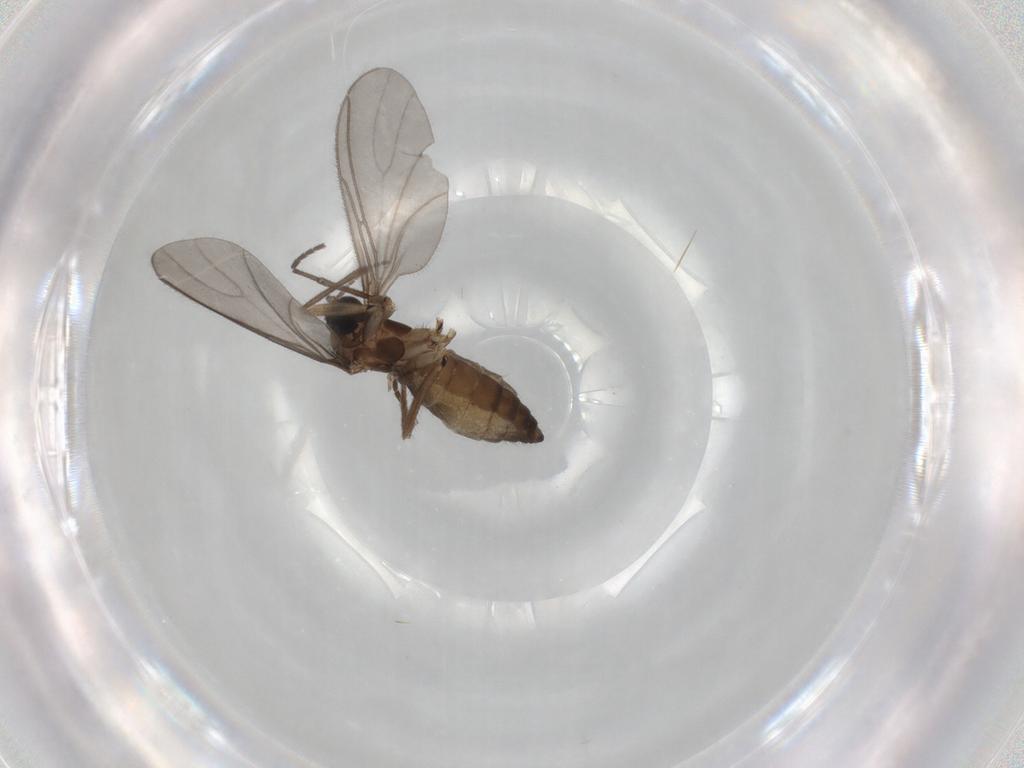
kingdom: Animalia
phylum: Arthropoda
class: Insecta
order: Diptera
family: Sciaridae
